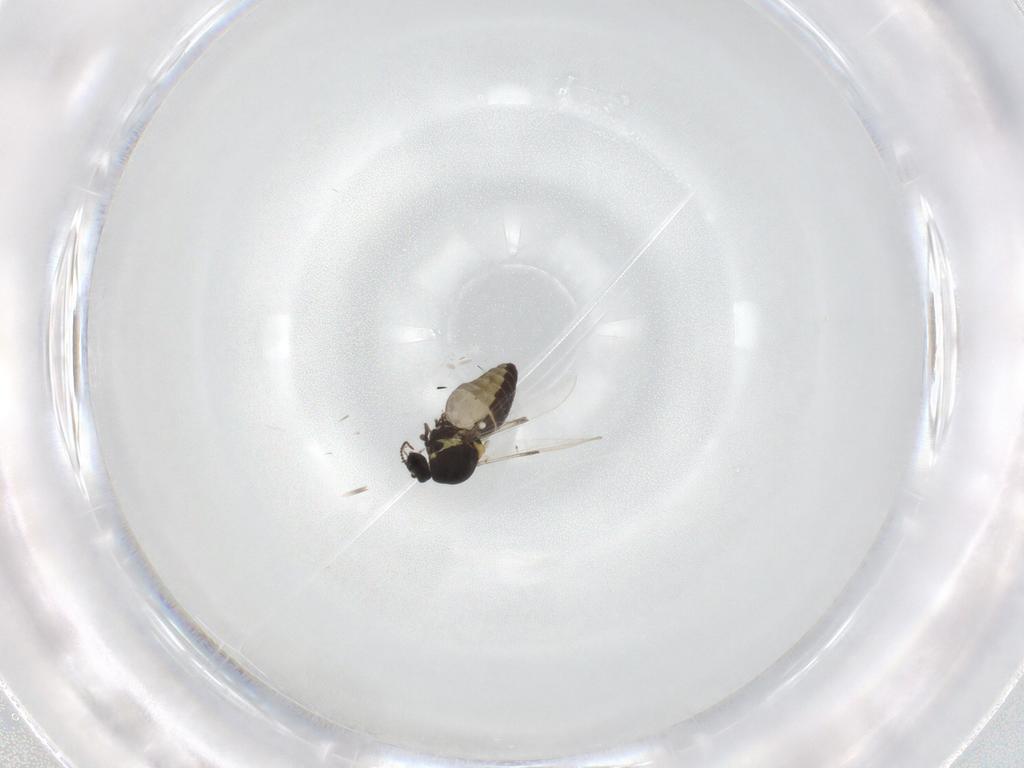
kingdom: Animalia
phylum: Arthropoda
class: Insecta
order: Diptera
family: Ceratopogonidae
